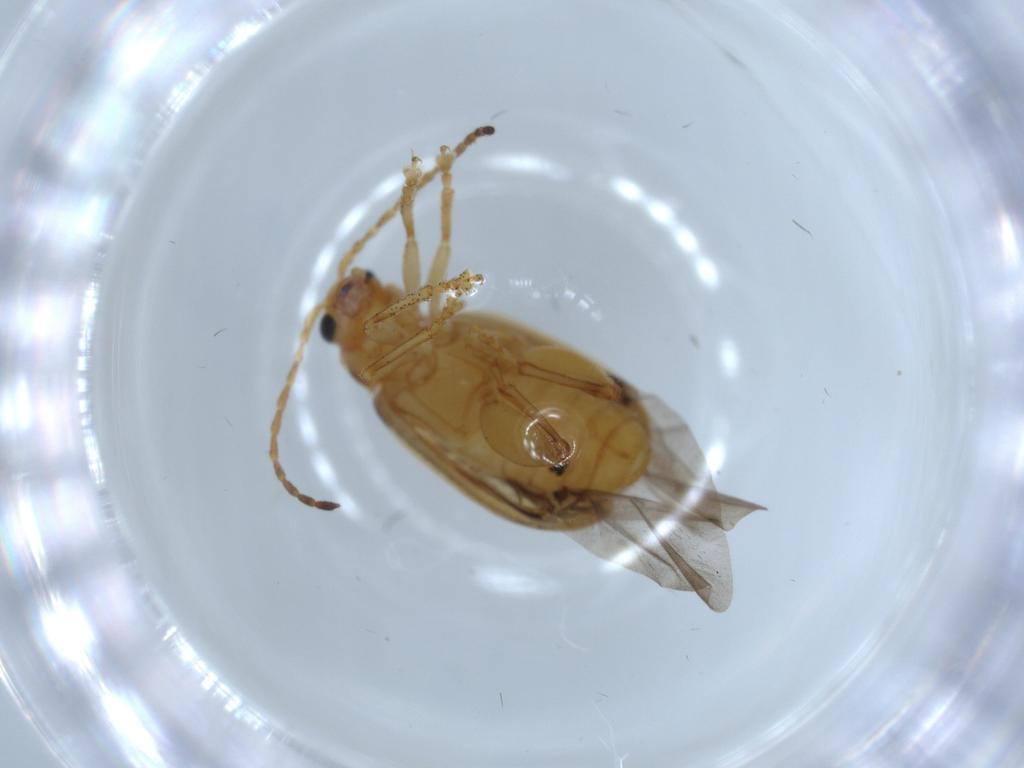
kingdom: Animalia
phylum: Arthropoda
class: Insecta
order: Coleoptera
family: Chrysomelidae
